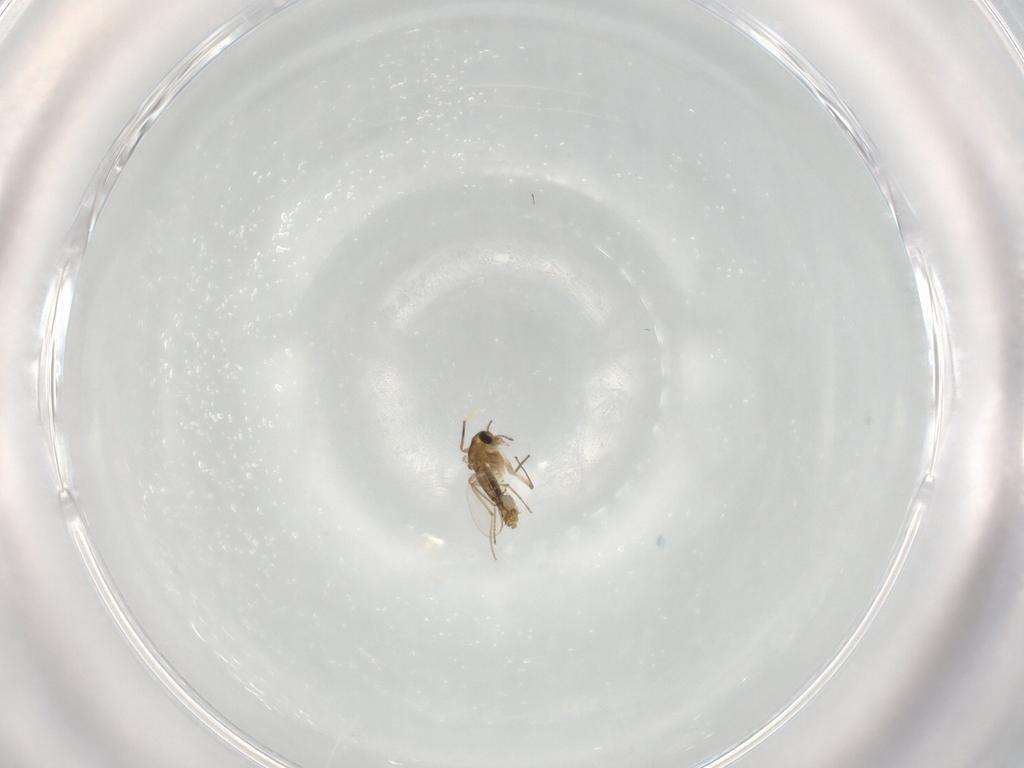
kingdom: Animalia
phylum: Arthropoda
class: Insecta
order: Diptera
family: Chironomidae
